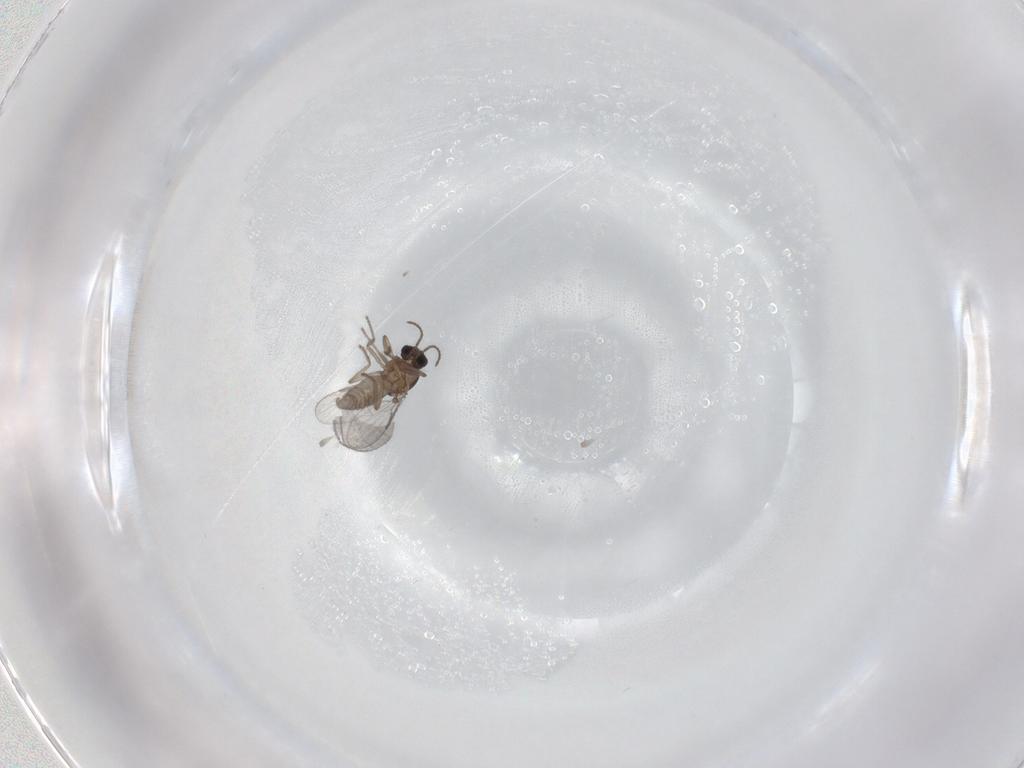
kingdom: Animalia
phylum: Arthropoda
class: Insecta
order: Diptera
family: Ceratopogonidae
